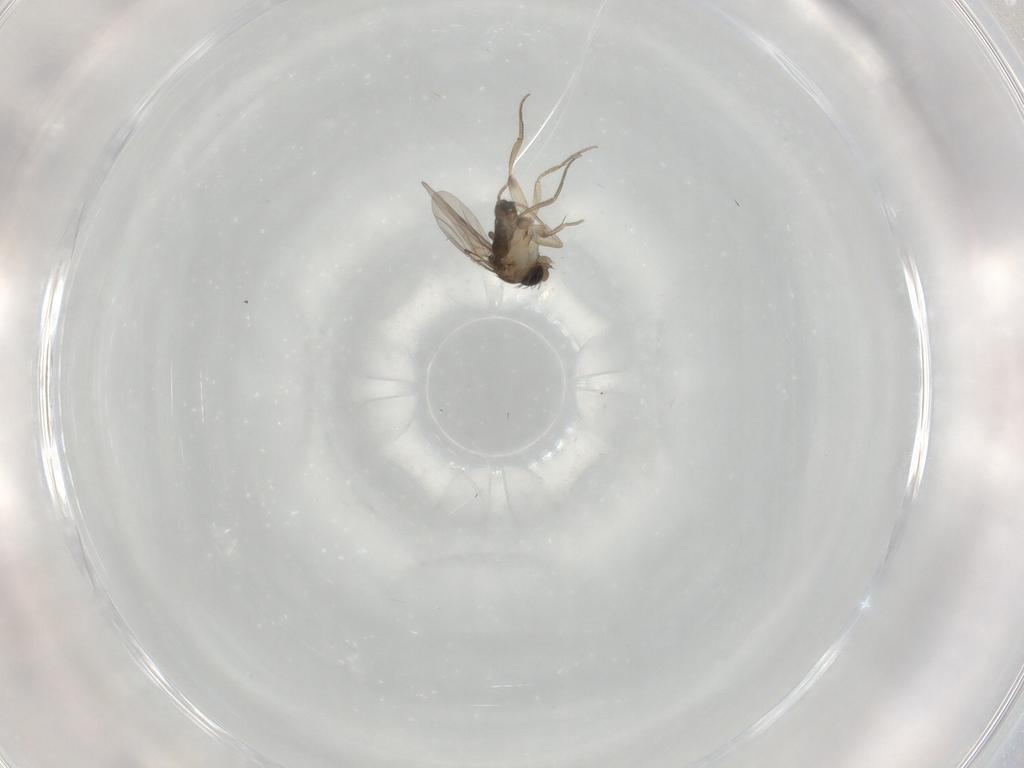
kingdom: Animalia
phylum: Arthropoda
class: Insecta
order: Diptera
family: Phoridae
